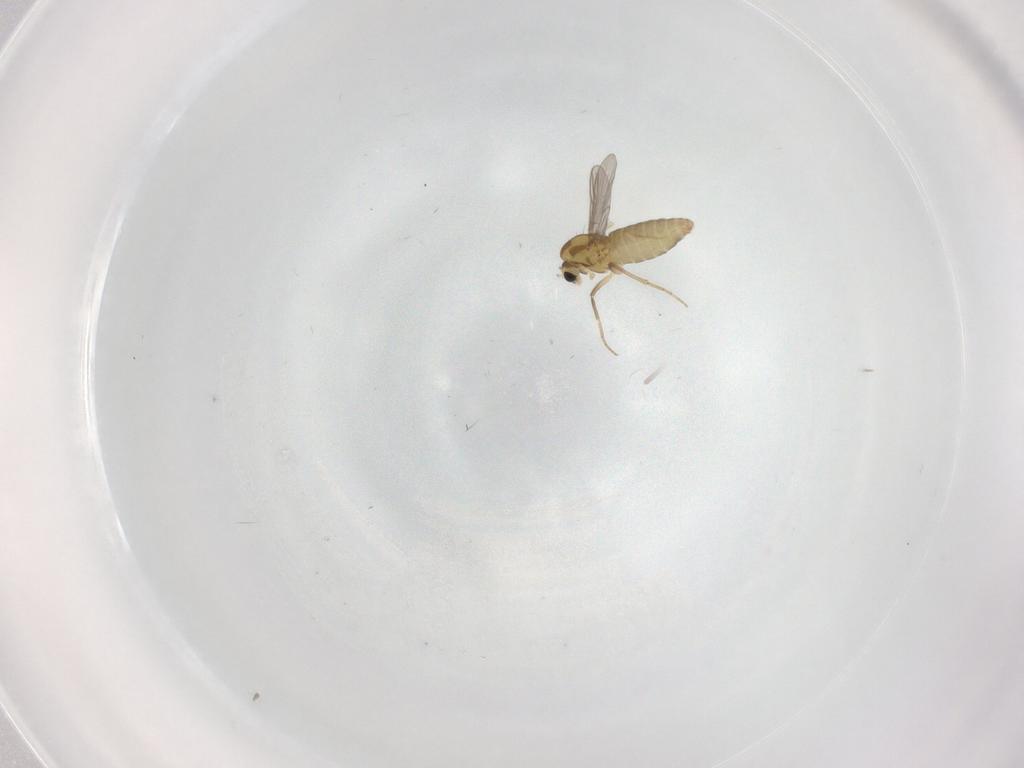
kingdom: Animalia
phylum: Arthropoda
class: Insecta
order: Diptera
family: Chironomidae
